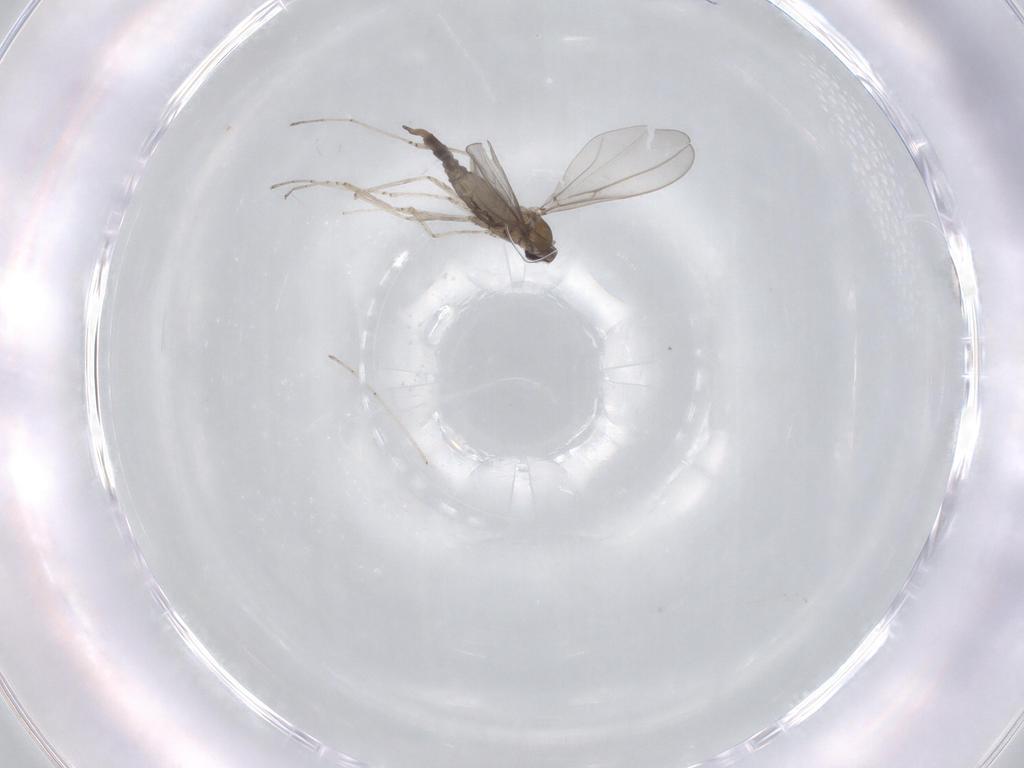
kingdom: Animalia
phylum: Arthropoda
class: Insecta
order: Diptera
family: Cecidomyiidae
